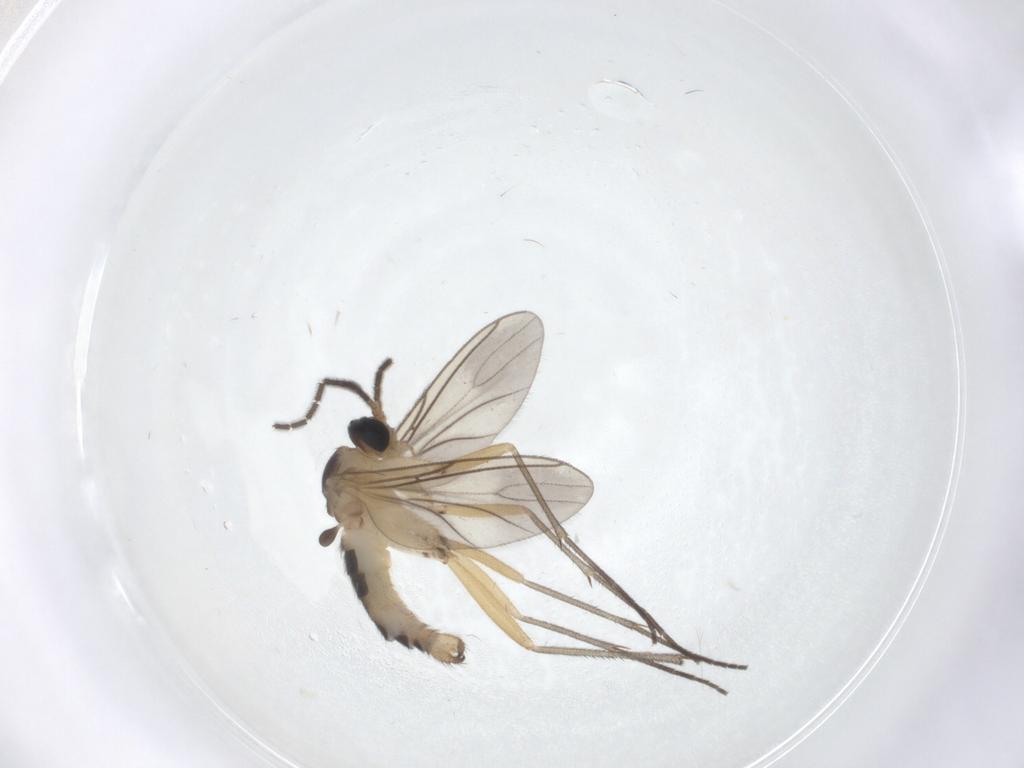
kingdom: Animalia
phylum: Arthropoda
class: Insecta
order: Diptera
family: Sciaridae
